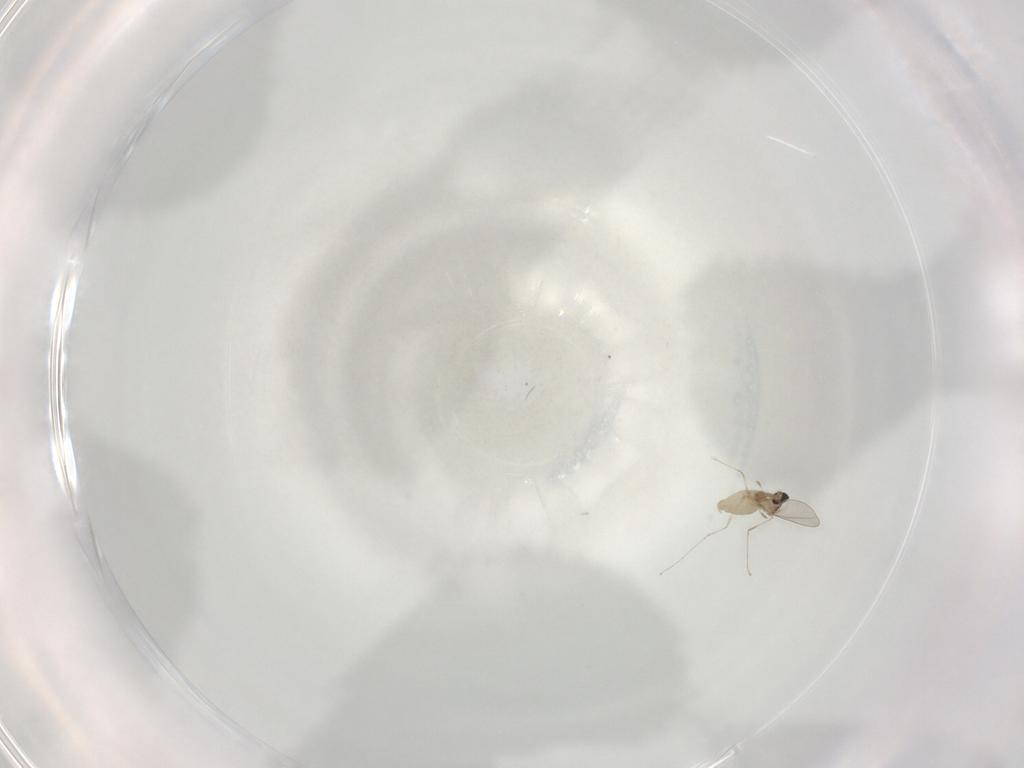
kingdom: Animalia
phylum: Arthropoda
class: Insecta
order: Diptera
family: Cecidomyiidae
